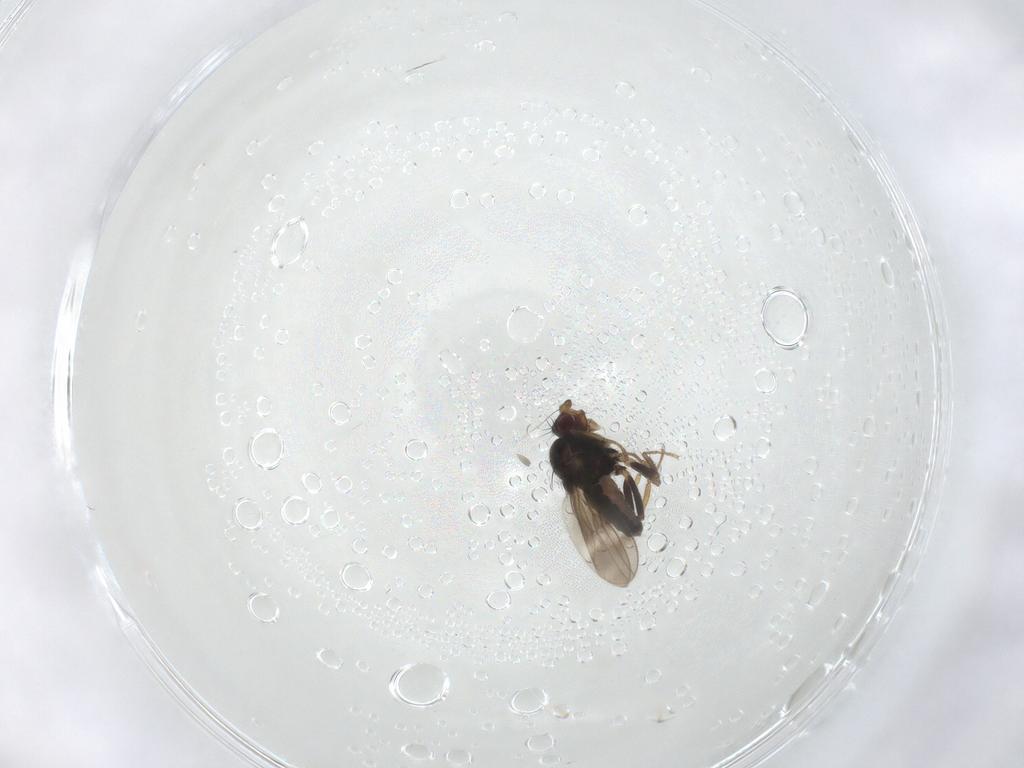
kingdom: Animalia
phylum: Arthropoda
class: Insecta
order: Diptera
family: Sphaeroceridae
